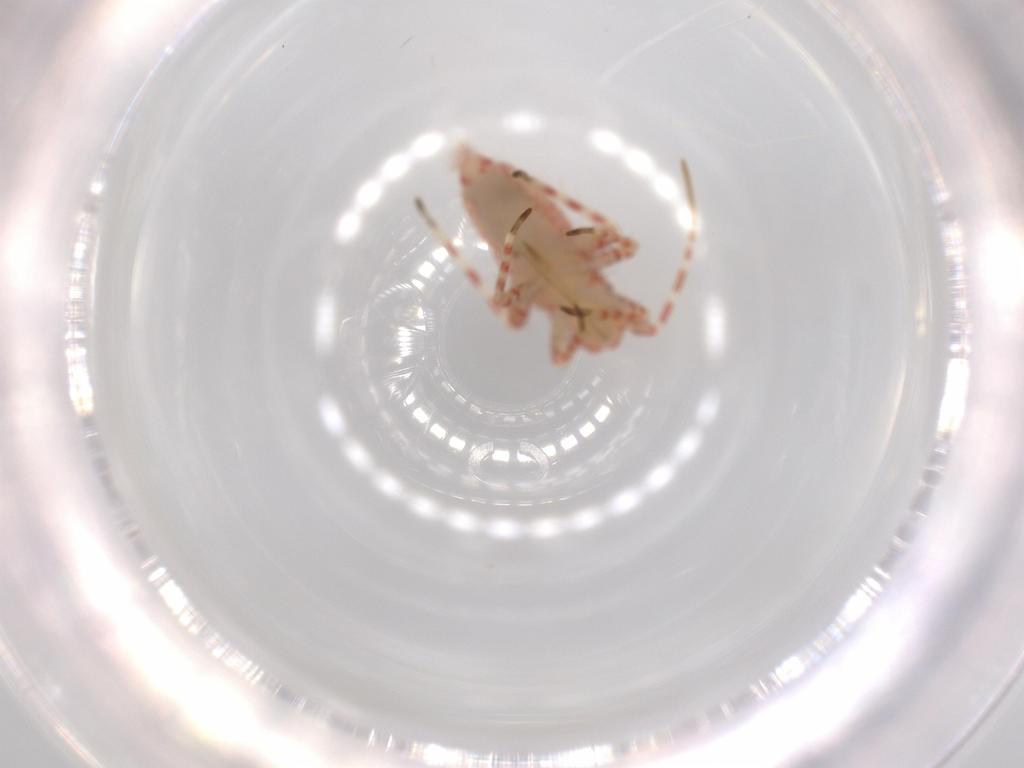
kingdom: Animalia
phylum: Arthropoda
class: Insecta
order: Hemiptera
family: Miridae
